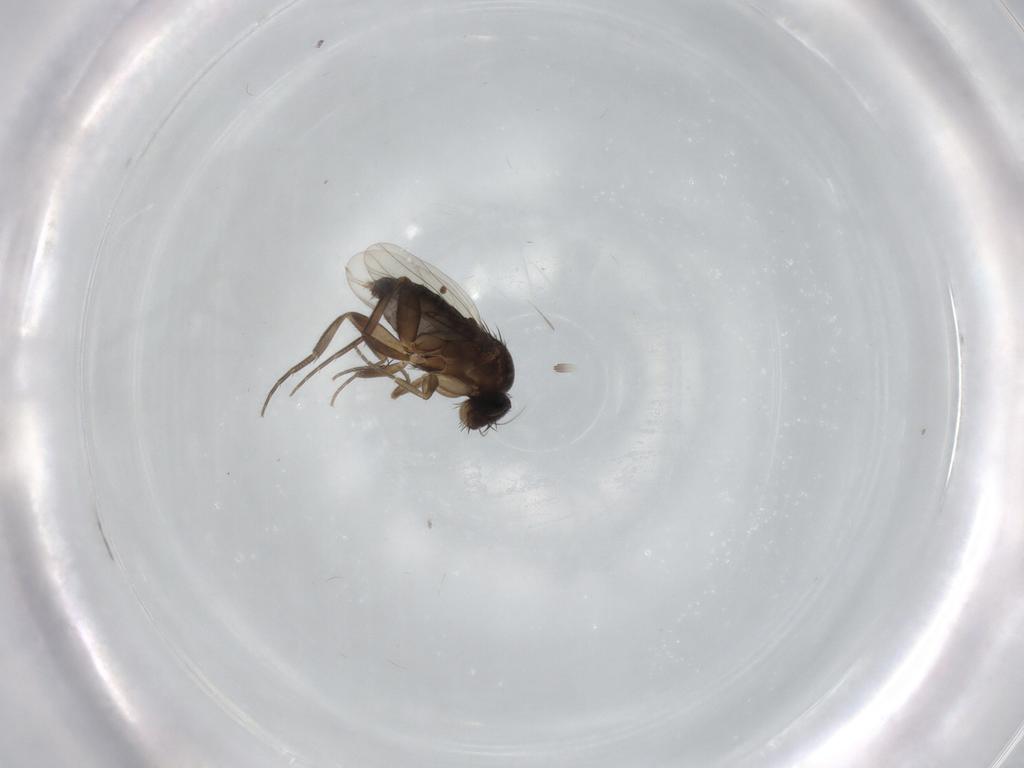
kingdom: Animalia
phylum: Arthropoda
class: Insecta
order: Diptera
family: Phoridae
